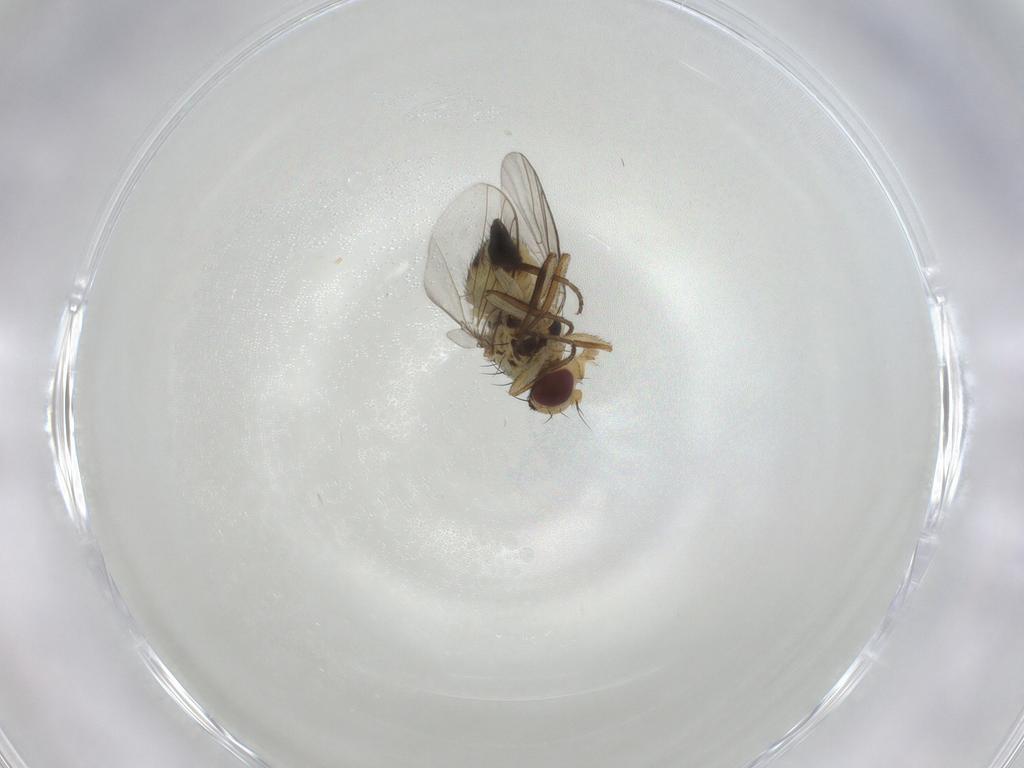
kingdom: Animalia
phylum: Arthropoda
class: Insecta
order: Diptera
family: Agromyzidae
